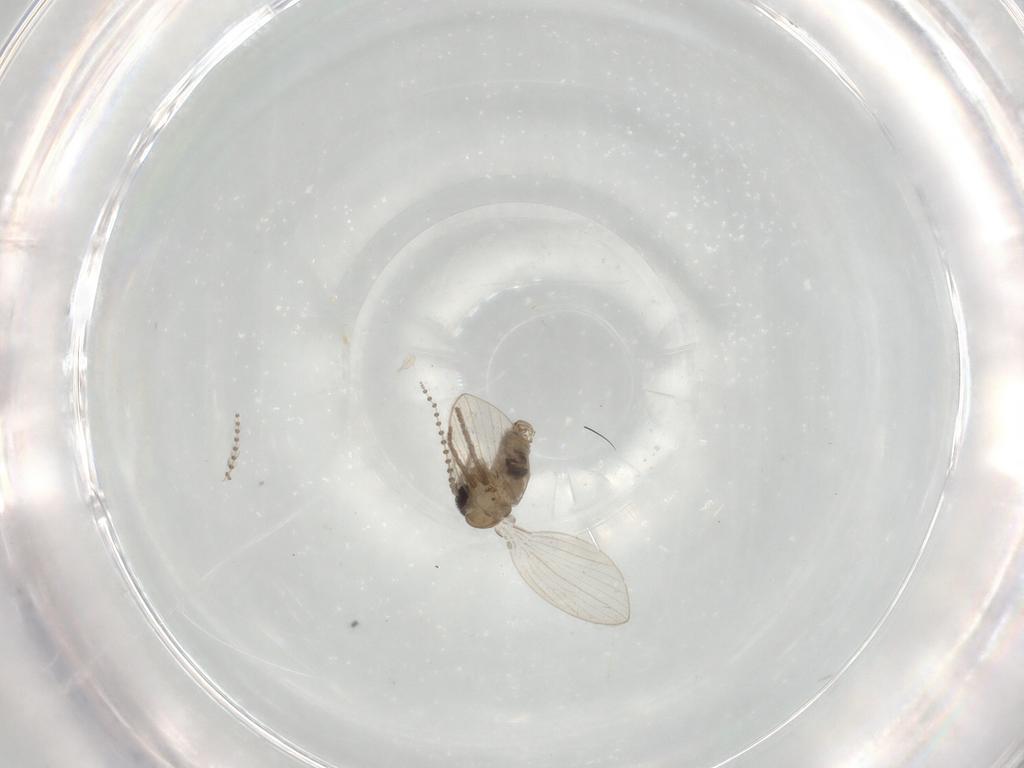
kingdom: Animalia
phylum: Arthropoda
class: Insecta
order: Diptera
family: Psychodidae
